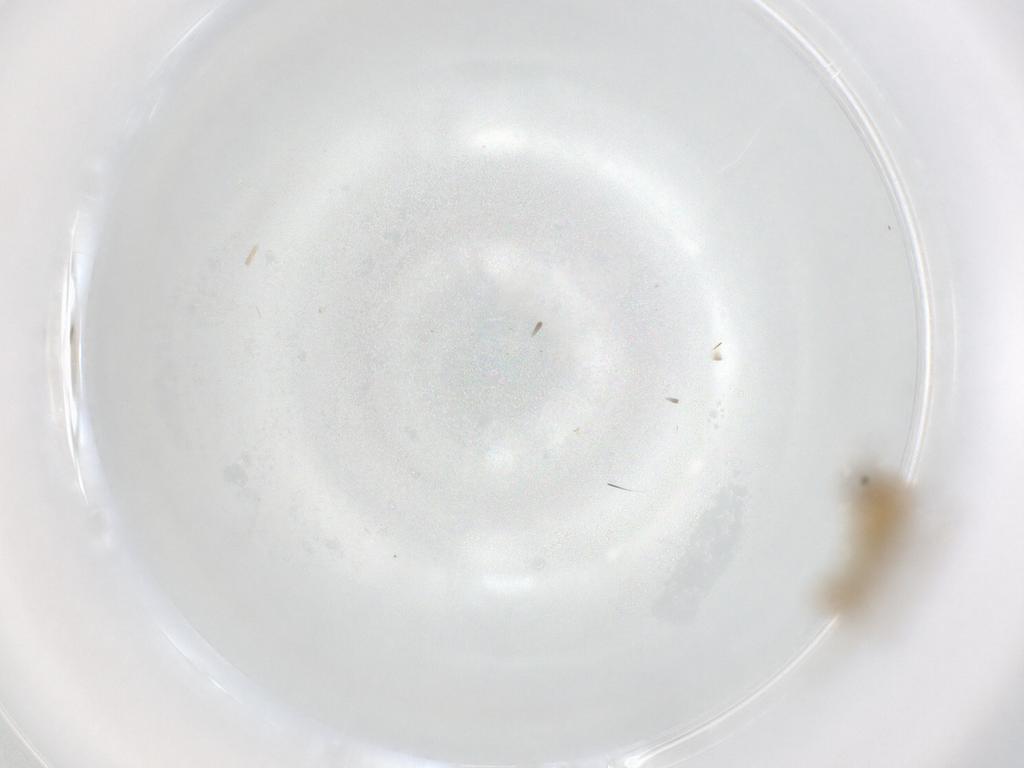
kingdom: Animalia
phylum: Arthropoda
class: Insecta
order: Diptera
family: Chironomidae
